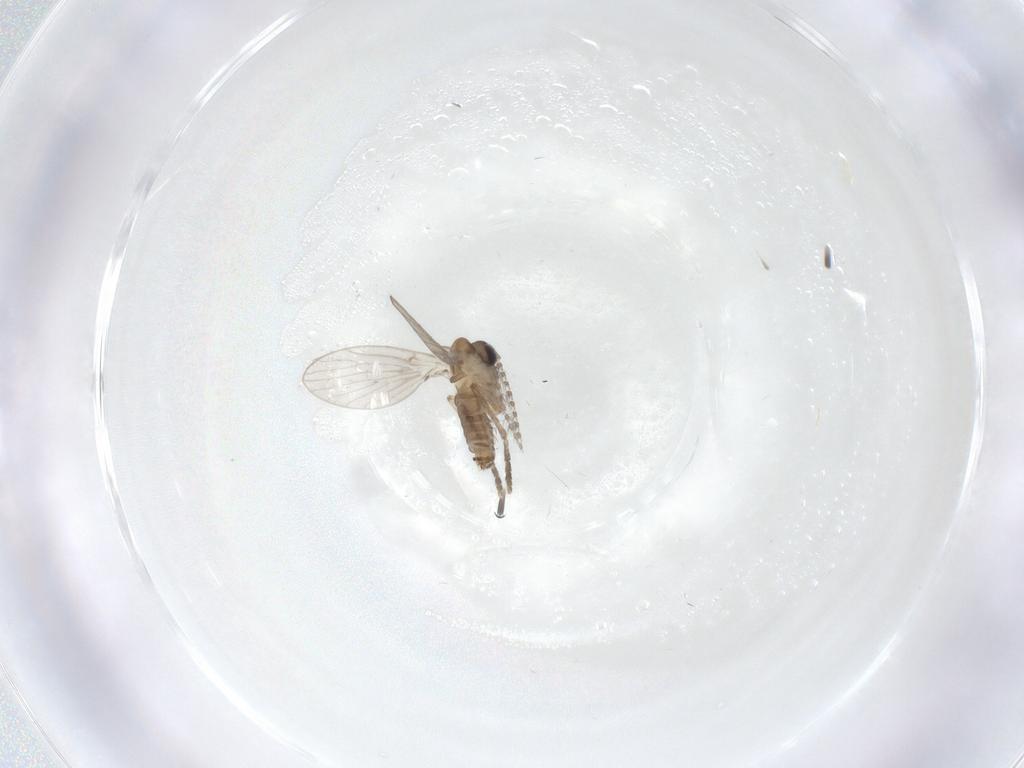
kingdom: Animalia
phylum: Arthropoda
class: Insecta
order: Diptera
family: Psychodidae
